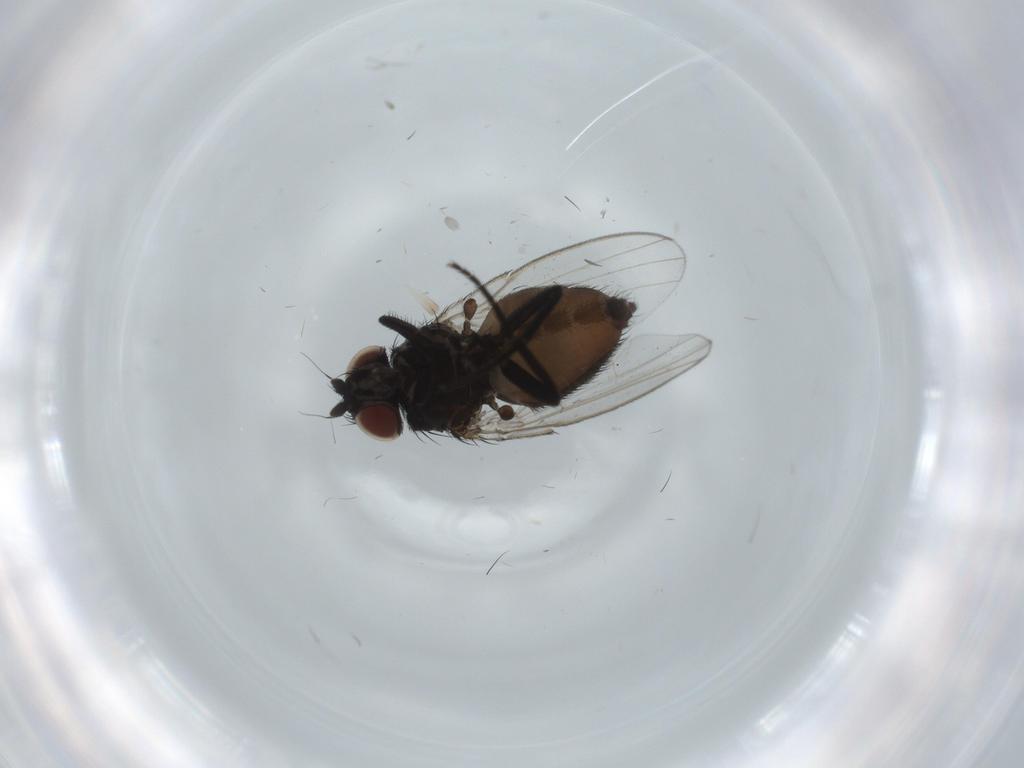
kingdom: Animalia
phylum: Arthropoda
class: Insecta
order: Diptera
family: Milichiidae
